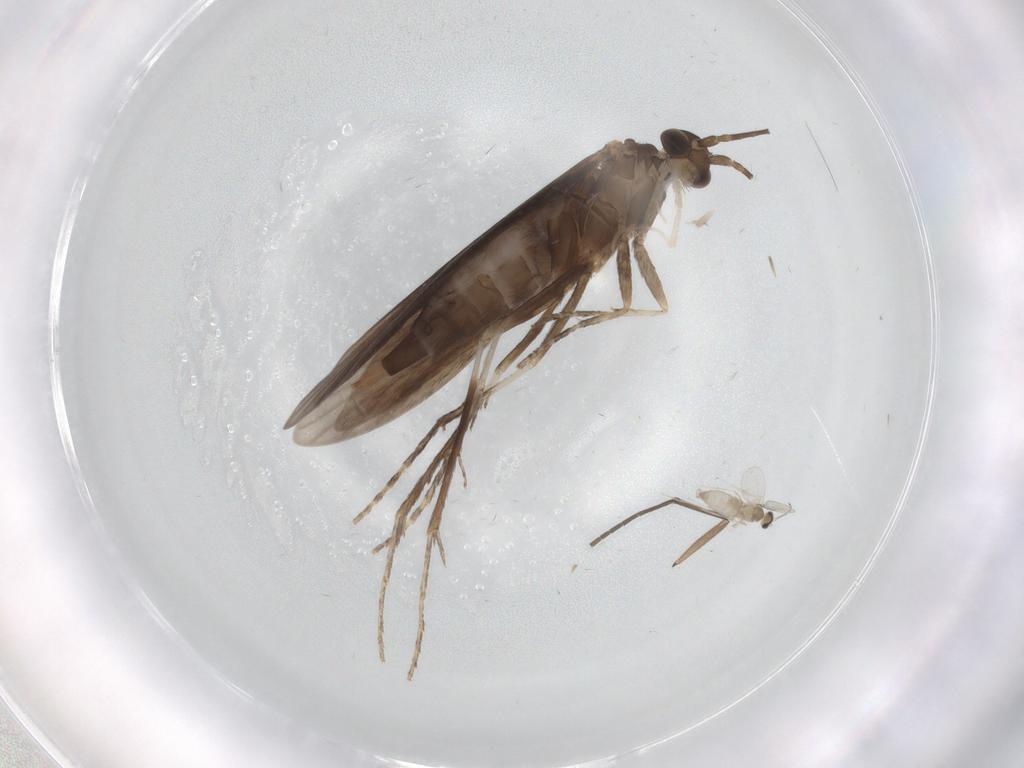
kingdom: Animalia
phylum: Arthropoda
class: Insecta
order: Trichoptera
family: Xiphocentronidae
